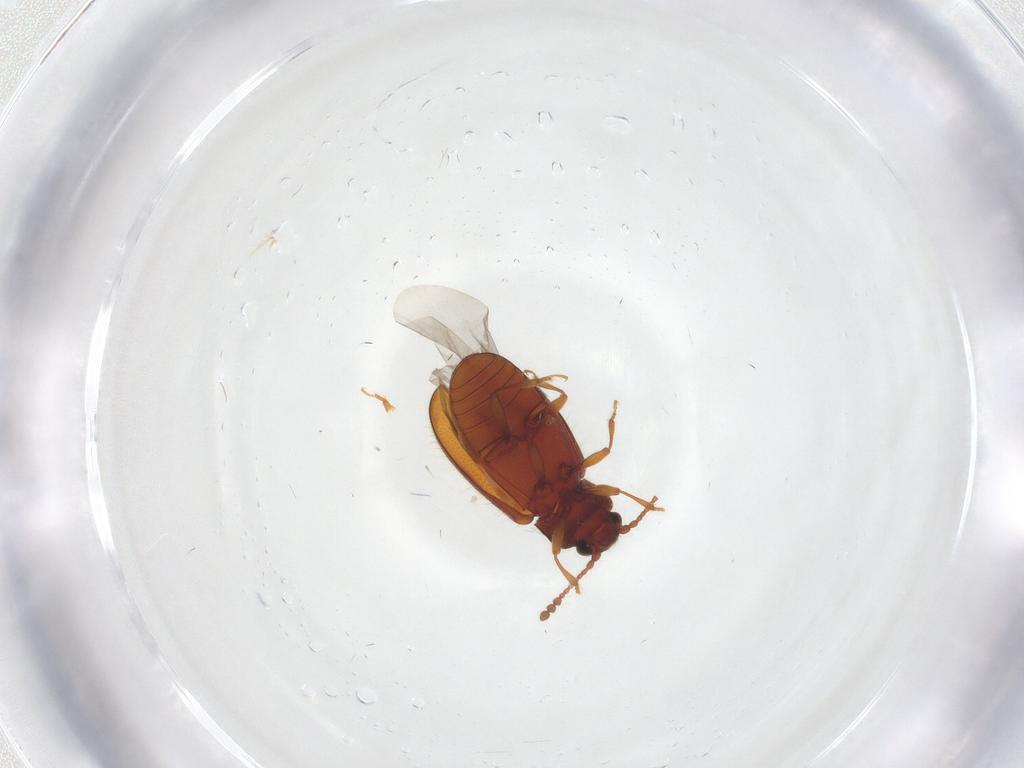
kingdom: Animalia
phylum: Arthropoda
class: Insecta
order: Coleoptera
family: Cryptophagidae
